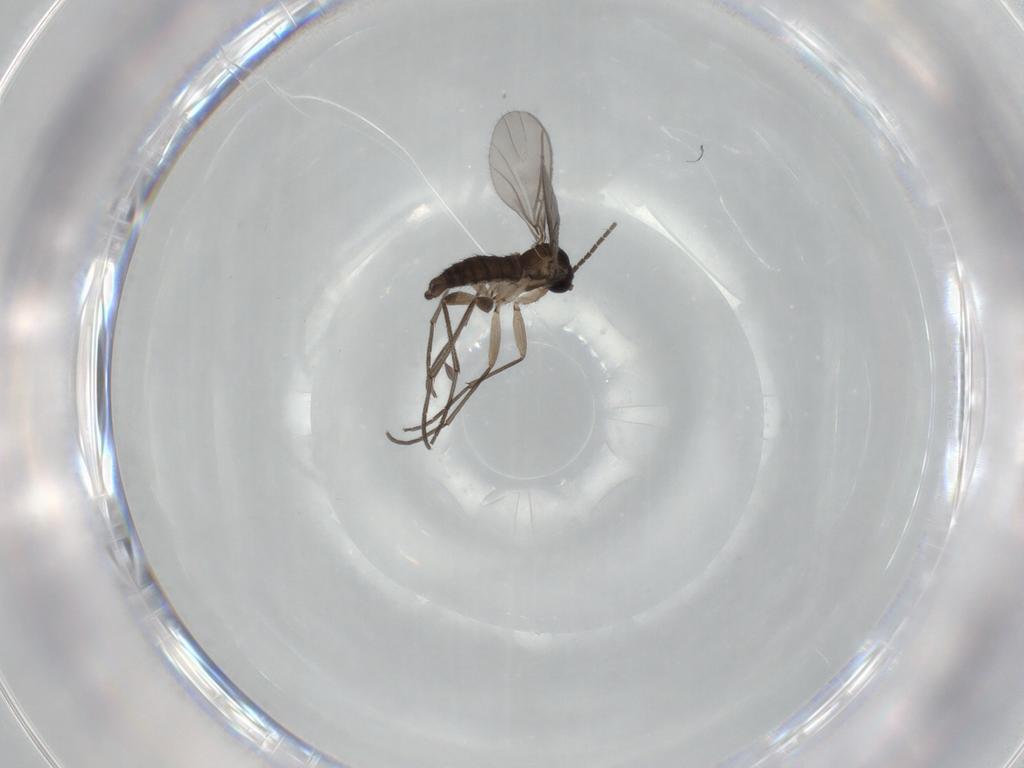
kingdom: Animalia
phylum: Arthropoda
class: Insecta
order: Diptera
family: Sciaridae
